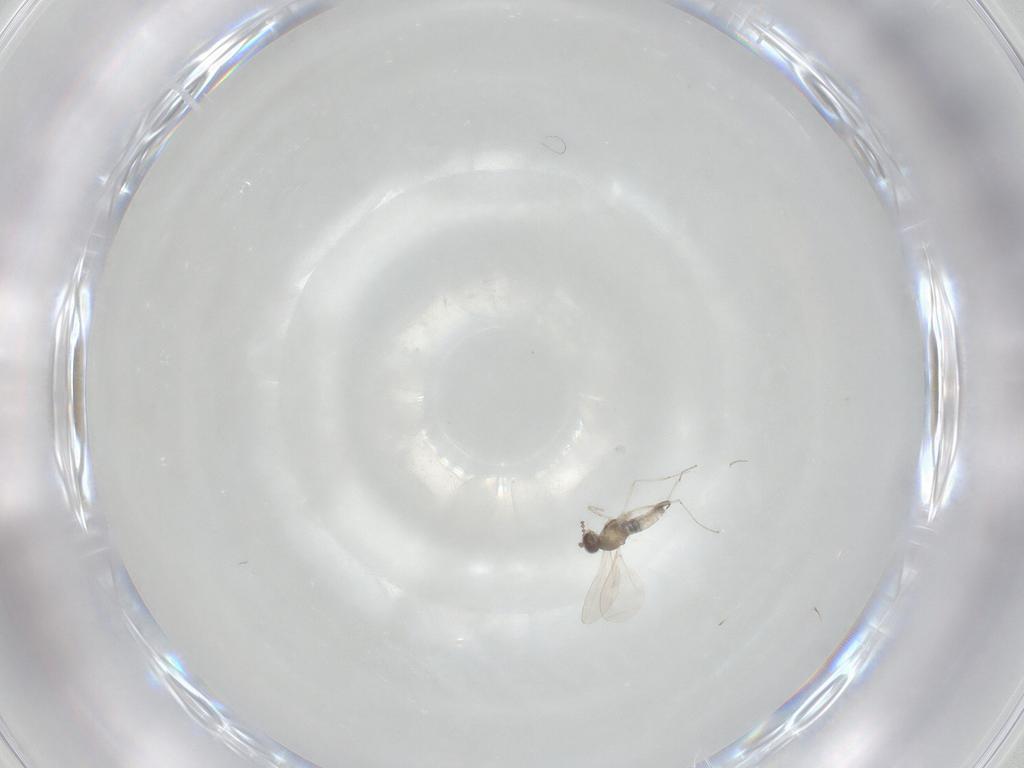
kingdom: Animalia
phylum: Arthropoda
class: Insecta
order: Diptera
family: Cecidomyiidae
